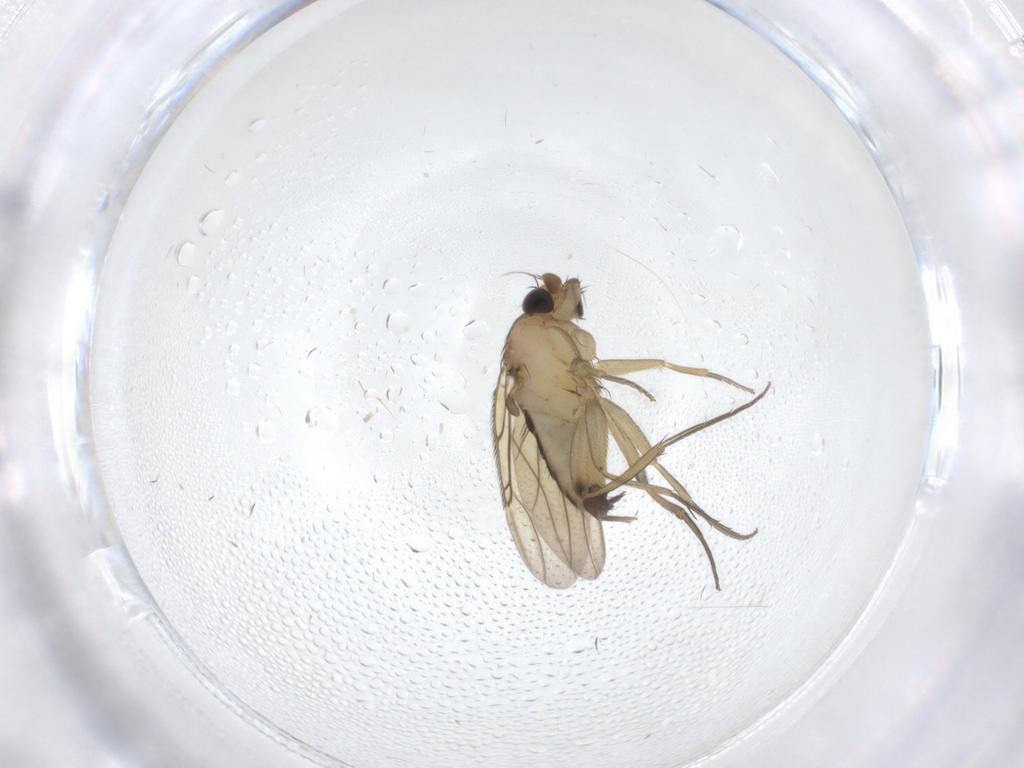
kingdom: Animalia
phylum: Arthropoda
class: Insecta
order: Diptera
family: Phoridae
